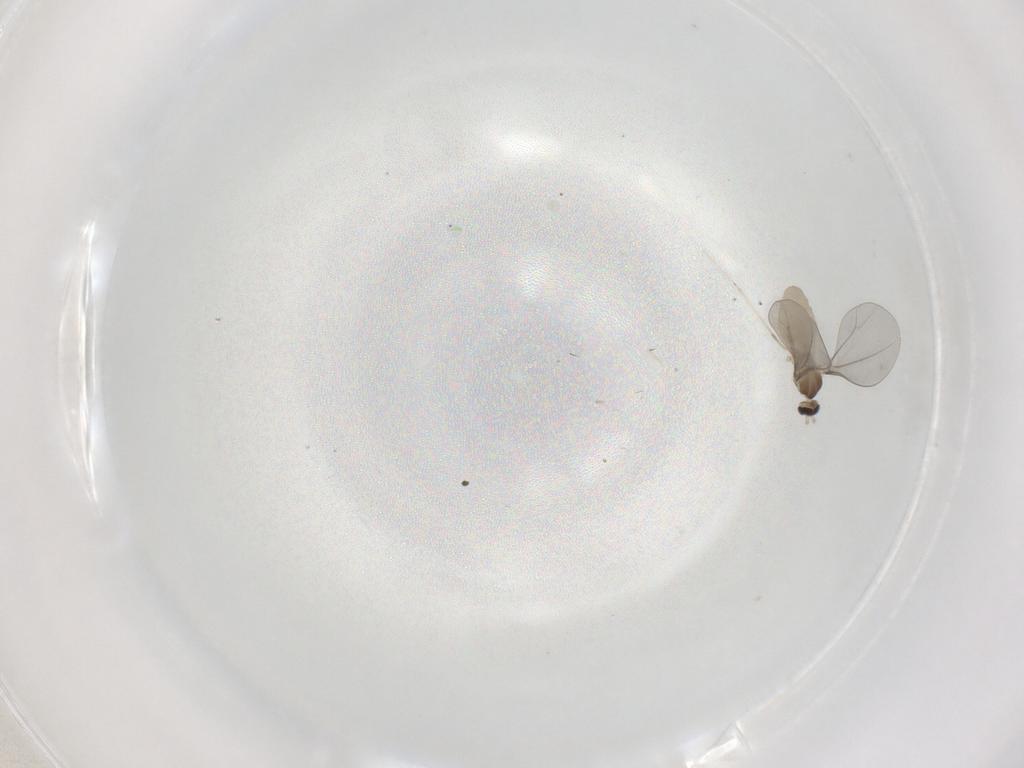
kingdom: Animalia
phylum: Arthropoda
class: Insecta
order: Diptera
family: Cecidomyiidae
